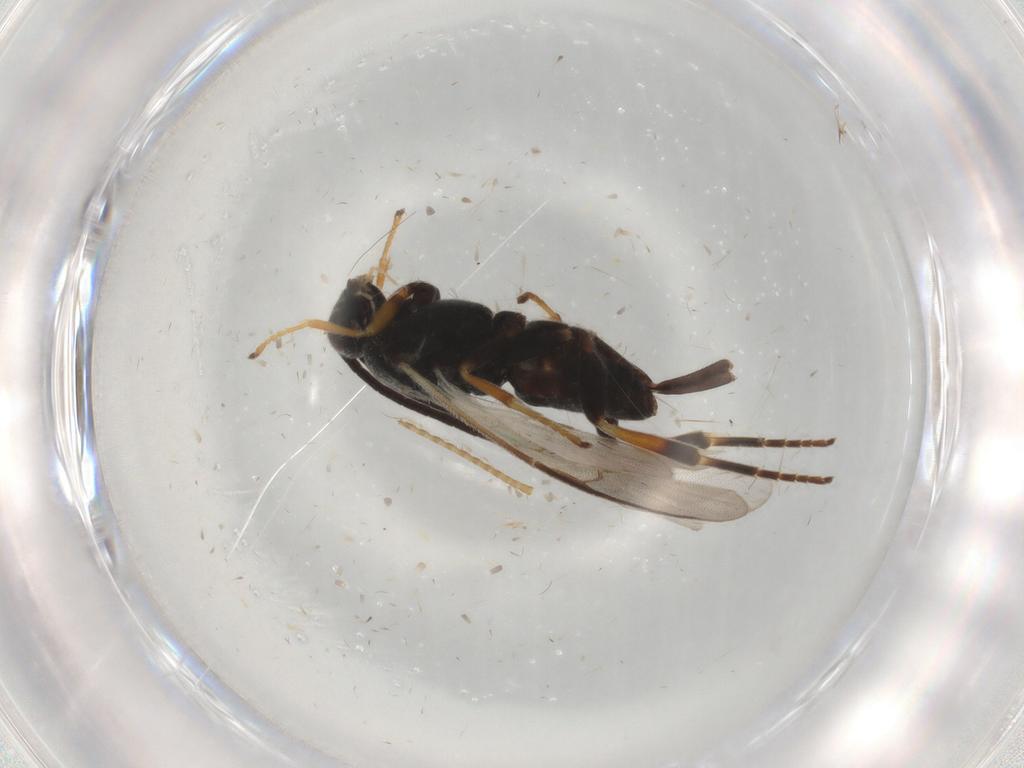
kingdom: Animalia
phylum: Arthropoda
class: Insecta
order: Hymenoptera
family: Braconidae
